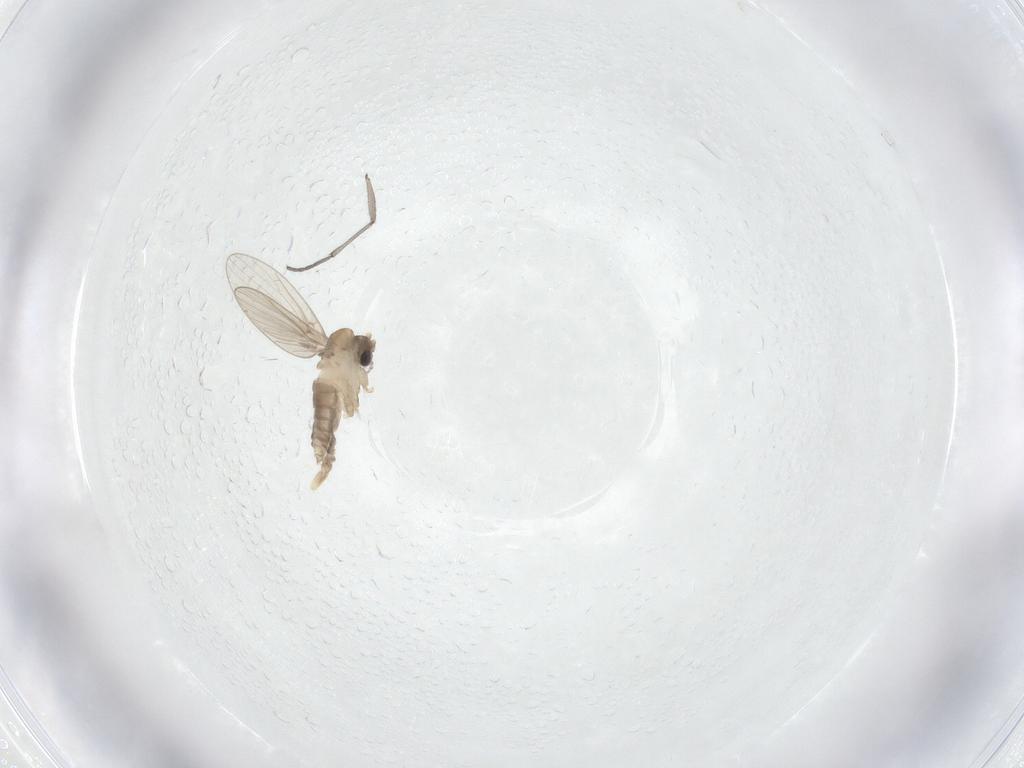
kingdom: Animalia
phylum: Arthropoda
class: Insecta
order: Diptera
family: Sciaridae
